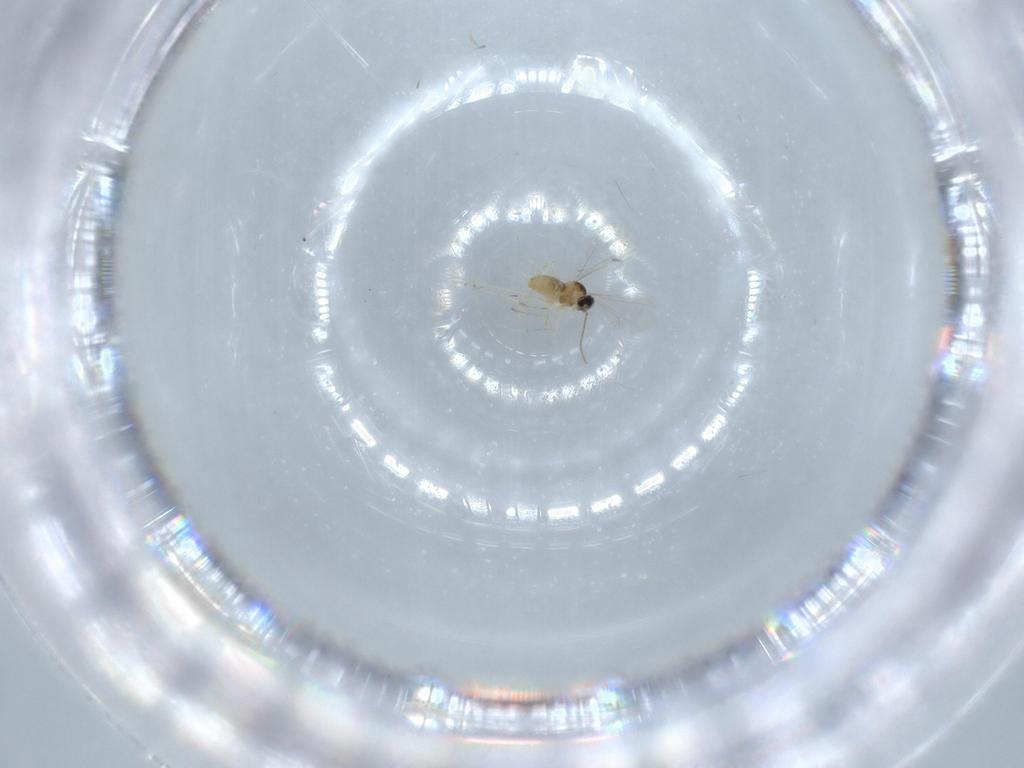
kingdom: Animalia
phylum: Arthropoda
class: Insecta
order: Diptera
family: Cecidomyiidae
